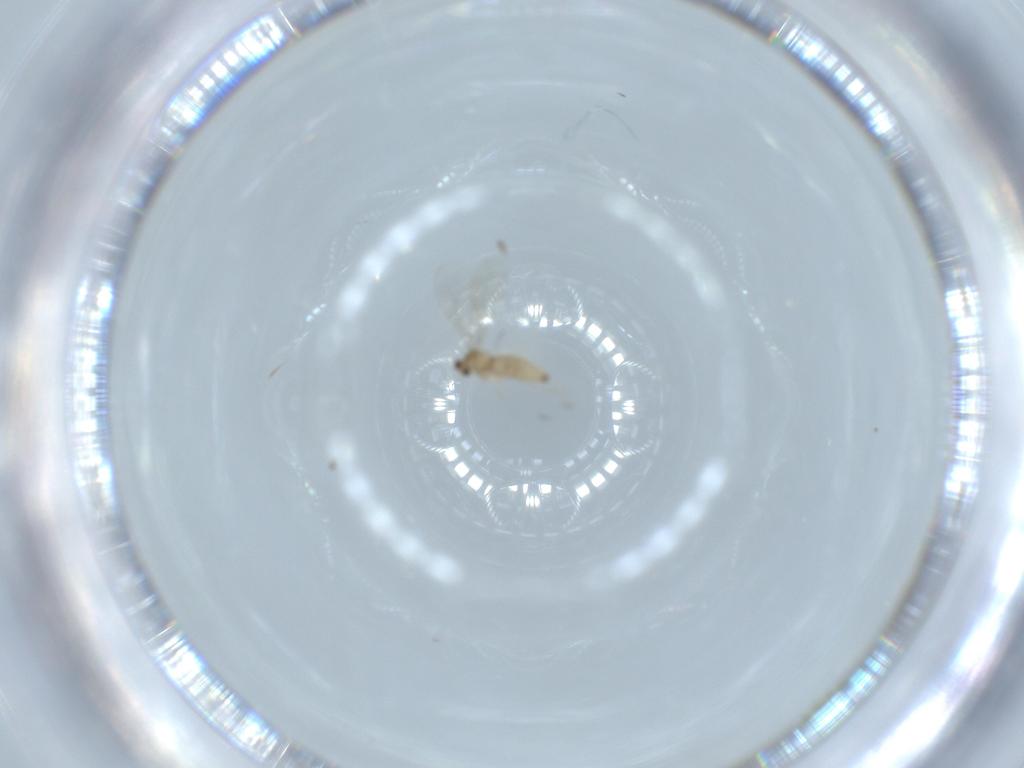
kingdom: Animalia
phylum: Arthropoda
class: Insecta
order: Diptera
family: Cecidomyiidae
